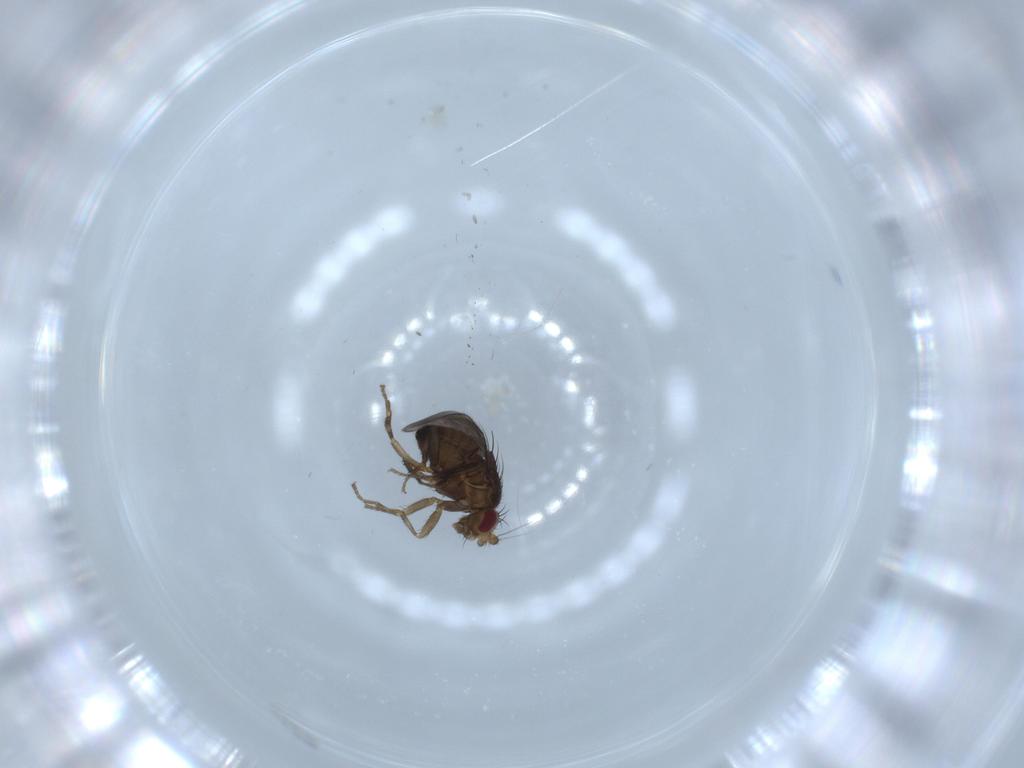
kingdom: Animalia
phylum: Arthropoda
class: Insecta
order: Diptera
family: Sphaeroceridae
